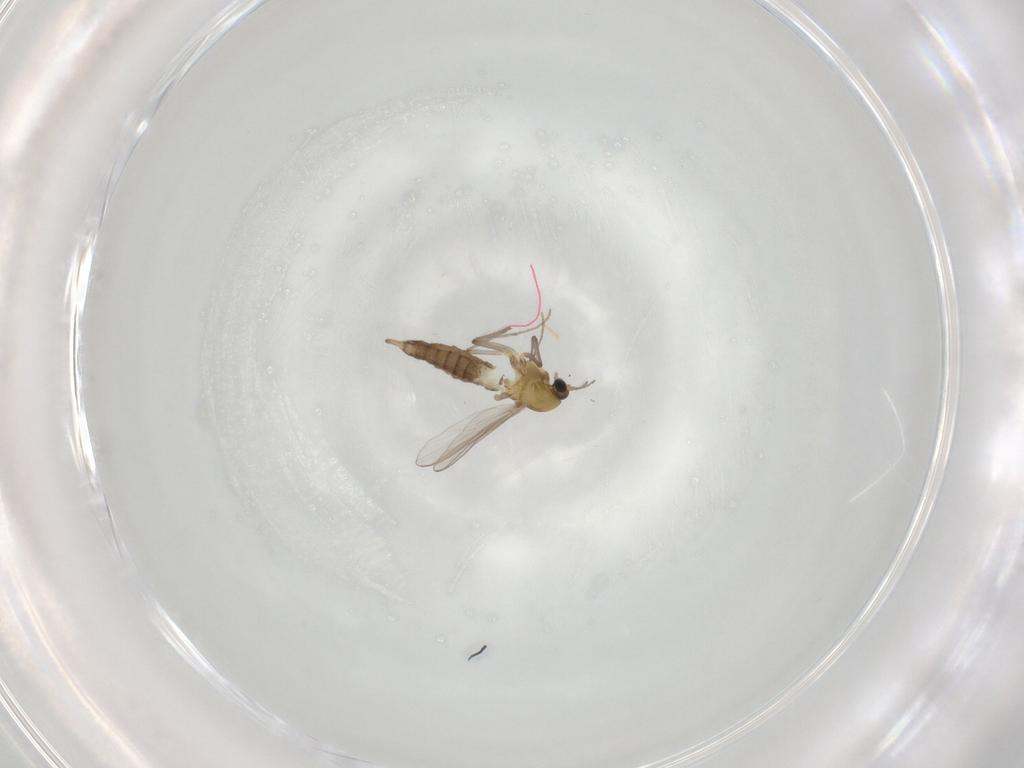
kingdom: Animalia
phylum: Arthropoda
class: Insecta
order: Diptera
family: Chironomidae
